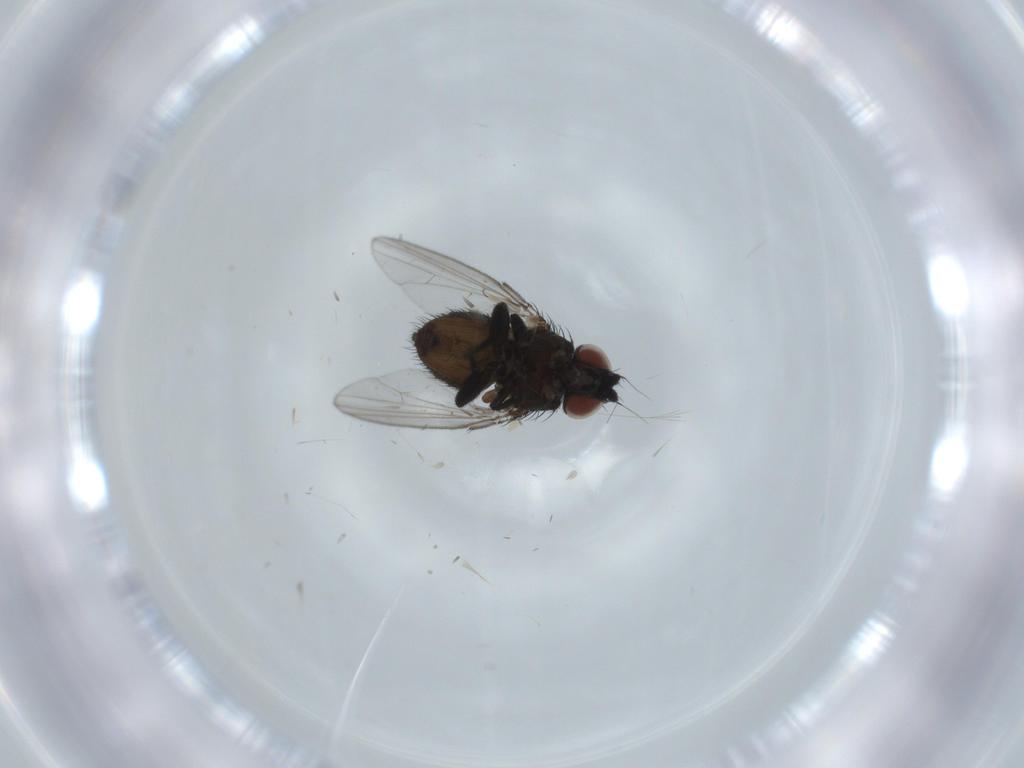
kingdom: Animalia
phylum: Arthropoda
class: Insecta
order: Diptera
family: Milichiidae
